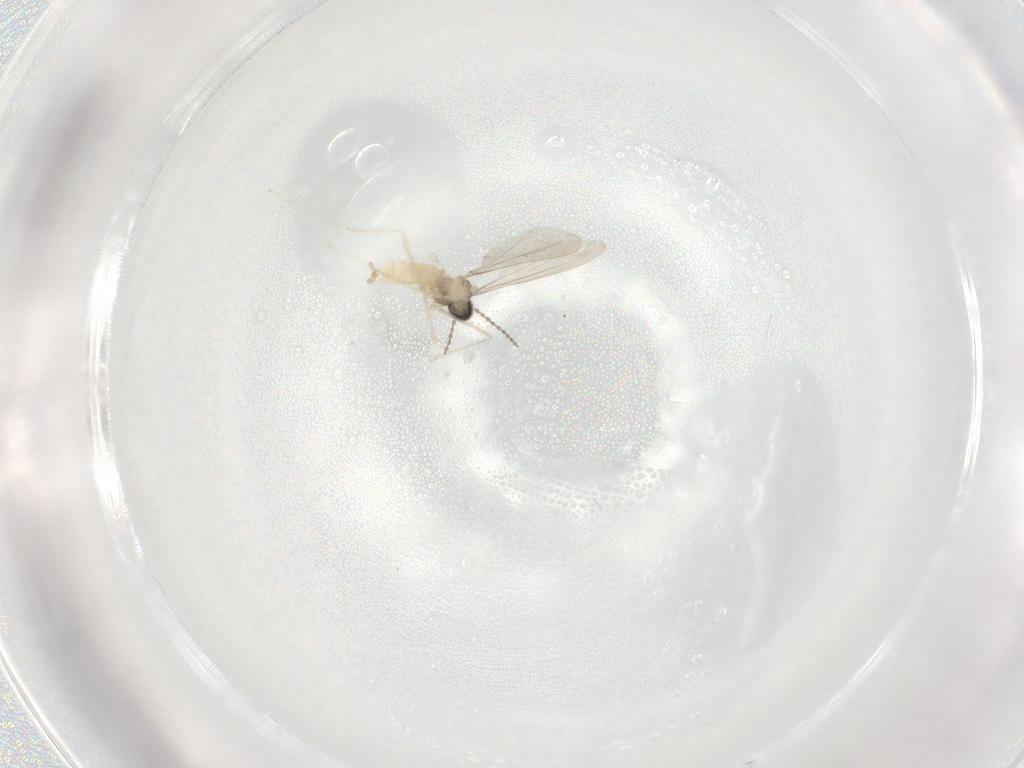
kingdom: Animalia
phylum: Arthropoda
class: Insecta
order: Diptera
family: Cecidomyiidae
